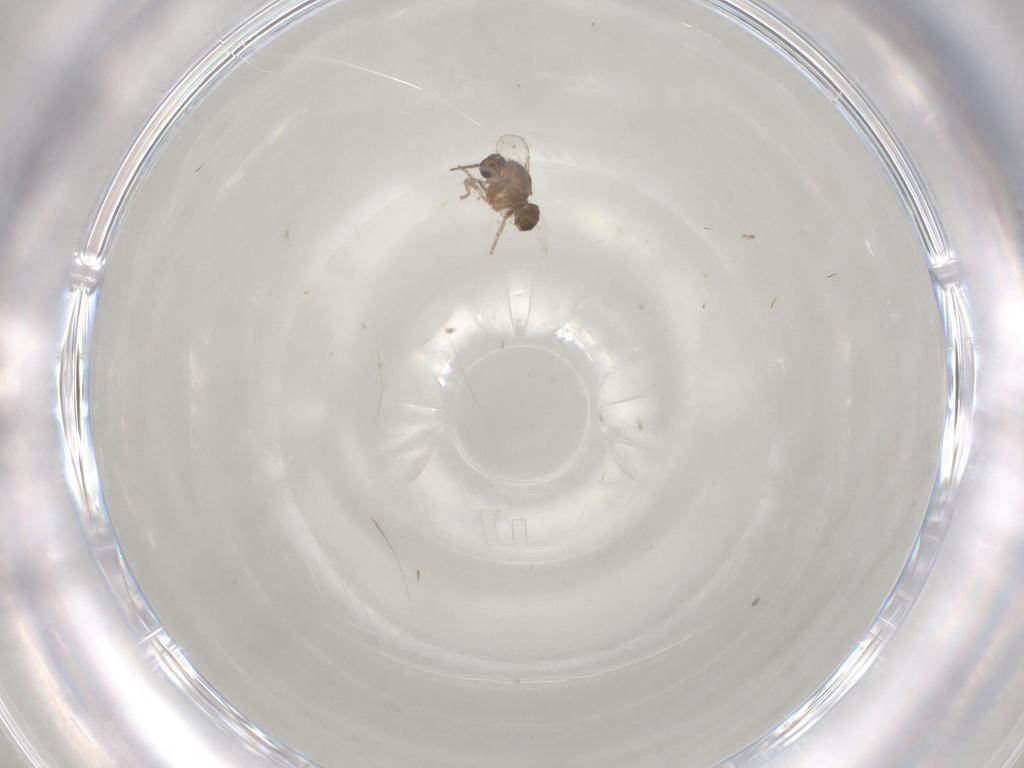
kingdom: Animalia
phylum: Arthropoda
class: Insecta
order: Diptera
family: Ceratopogonidae
